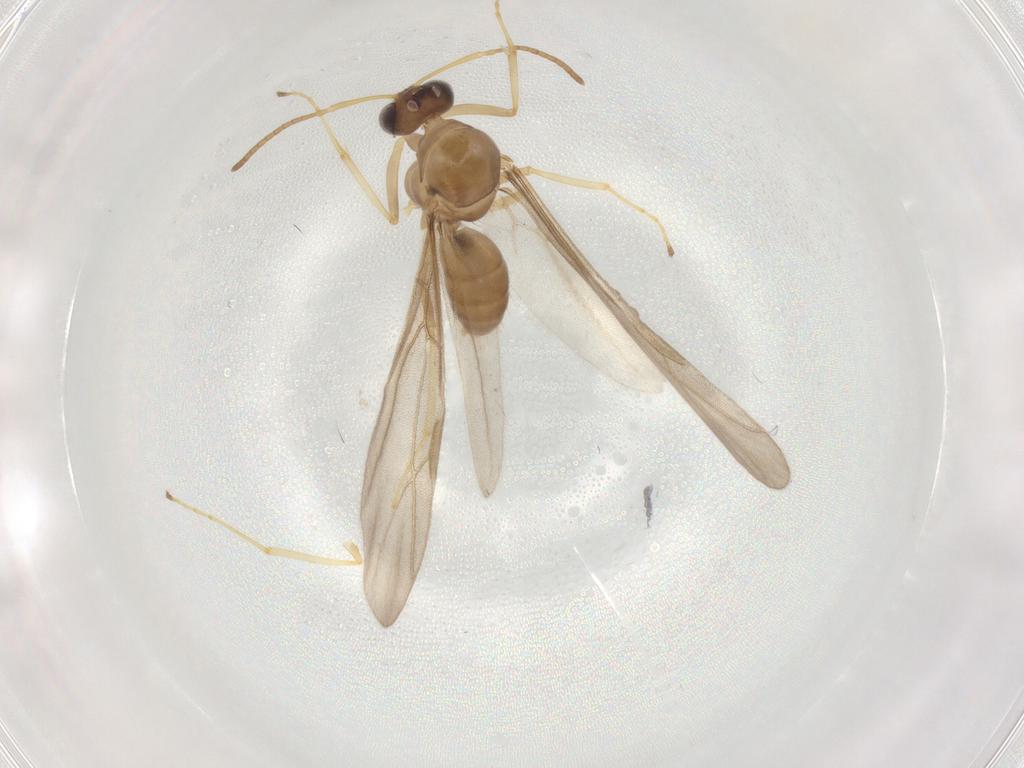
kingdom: Animalia
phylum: Arthropoda
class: Insecta
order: Hymenoptera
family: Formicidae
